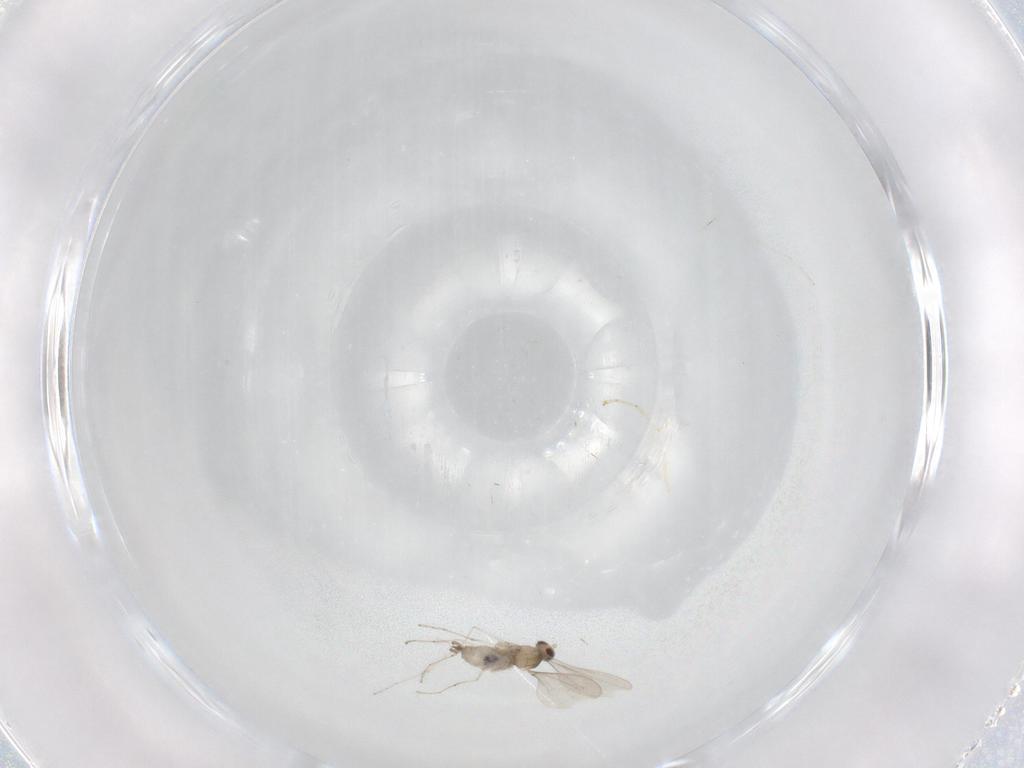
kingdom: Animalia
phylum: Arthropoda
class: Insecta
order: Diptera
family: Cecidomyiidae
